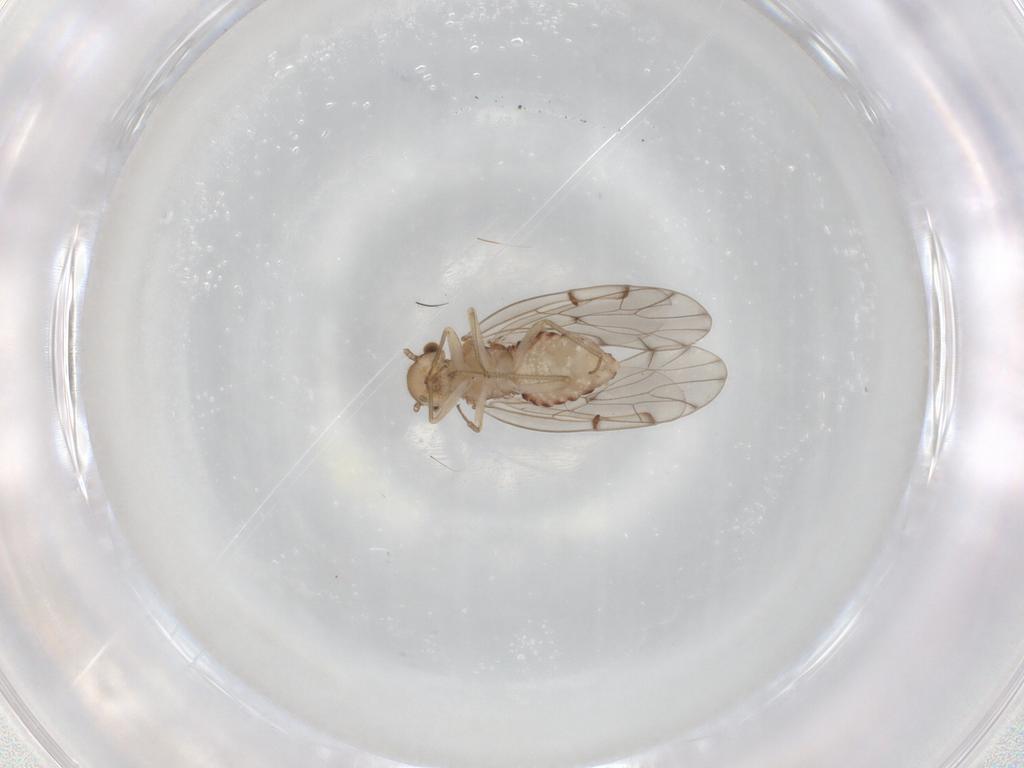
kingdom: Animalia
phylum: Arthropoda
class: Insecta
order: Diptera
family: Chironomidae
